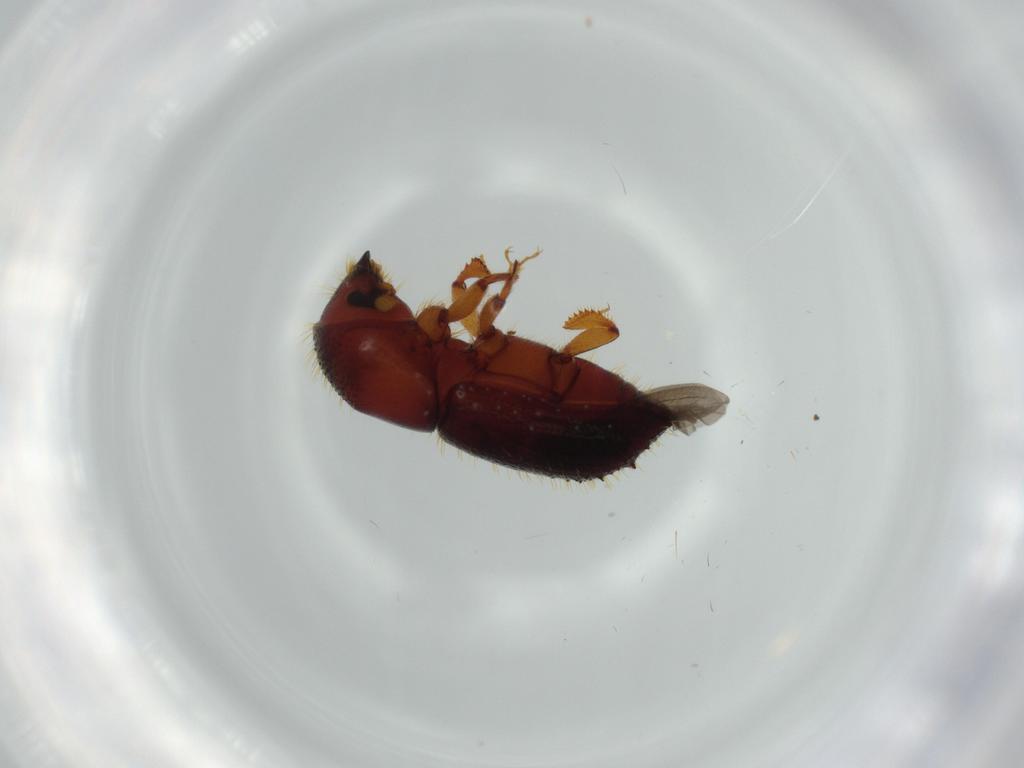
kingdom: Animalia
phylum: Arthropoda
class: Insecta
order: Coleoptera
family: Curculionidae
